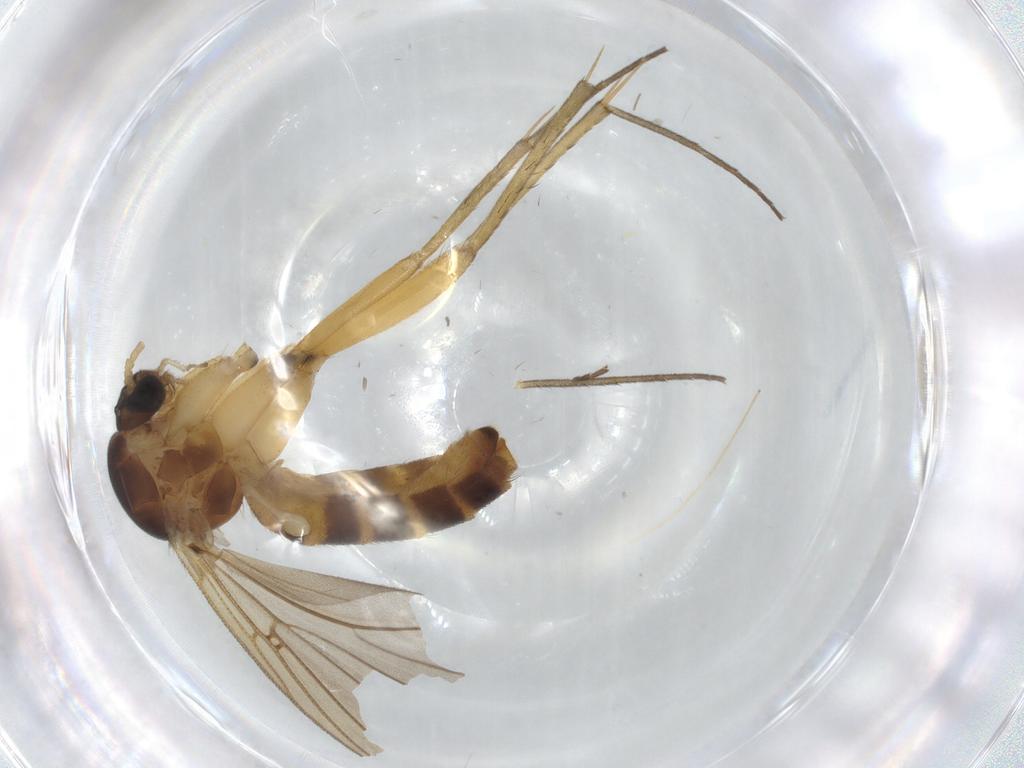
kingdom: Animalia
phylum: Arthropoda
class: Insecta
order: Diptera
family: Mycetophilidae
